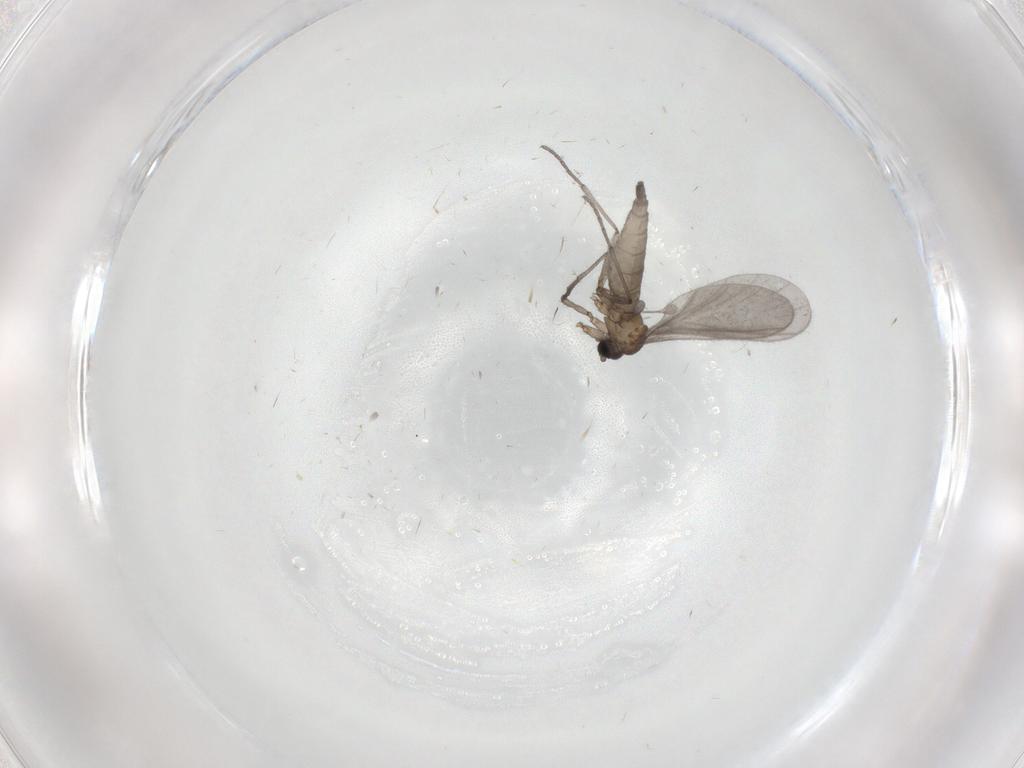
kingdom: Animalia
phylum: Arthropoda
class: Insecta
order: Diptera
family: Sciaridae
